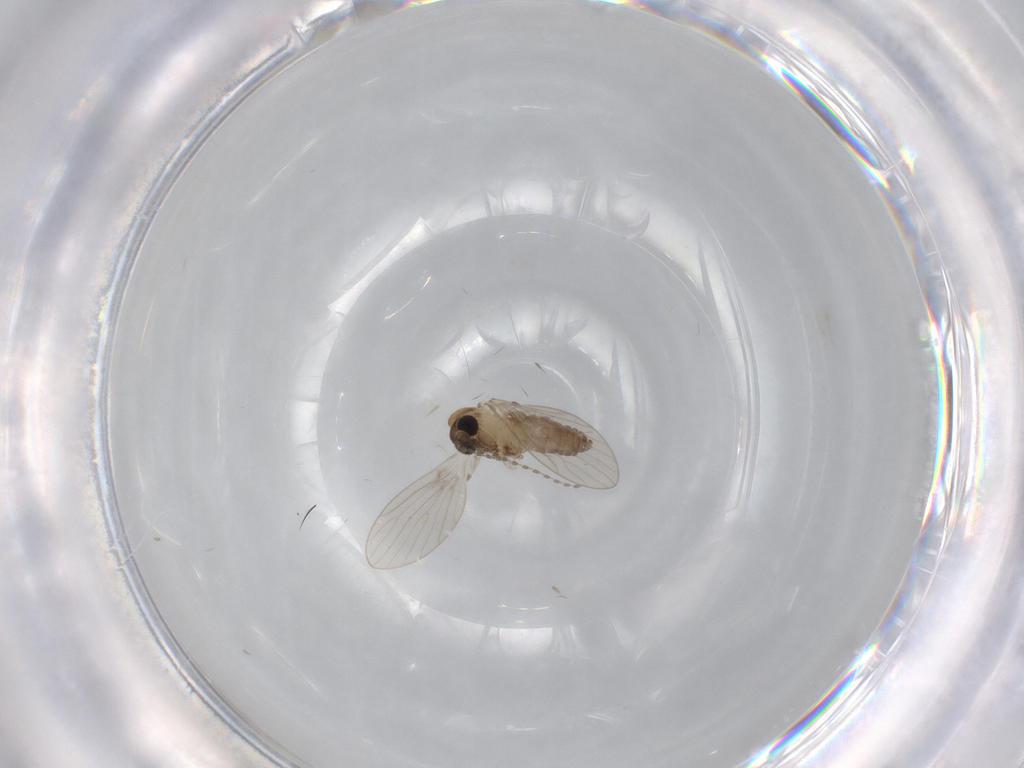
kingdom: Animalia
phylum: Arthropoda
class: Insecta
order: Diptera
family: Psychodidae
